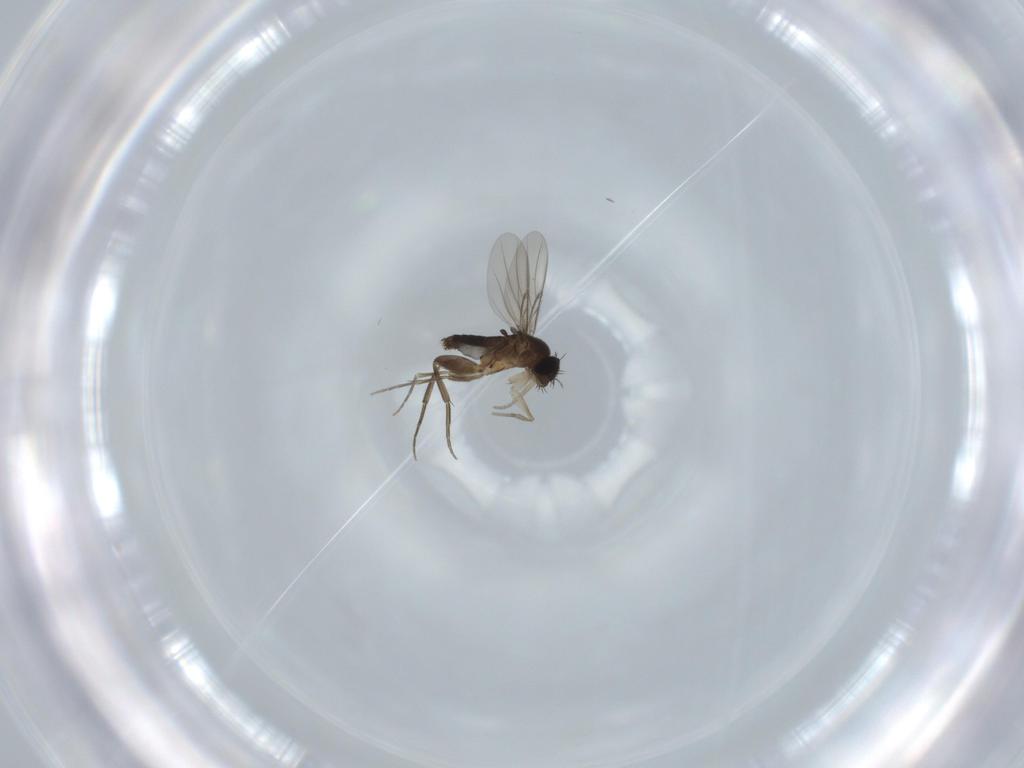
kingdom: Animalia
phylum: Arthropoda
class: Insecta
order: Diptera
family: Phoridae
